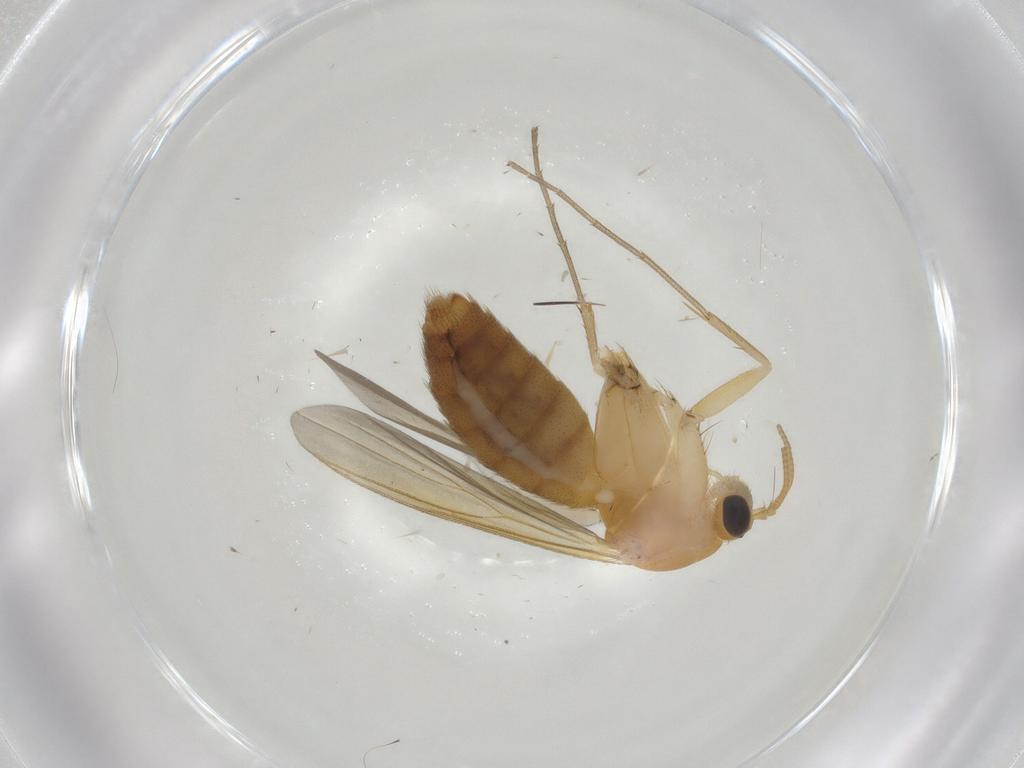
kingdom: Animalia
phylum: Arthropoda
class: Insecta
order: Diptera
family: Mycetophilidae
